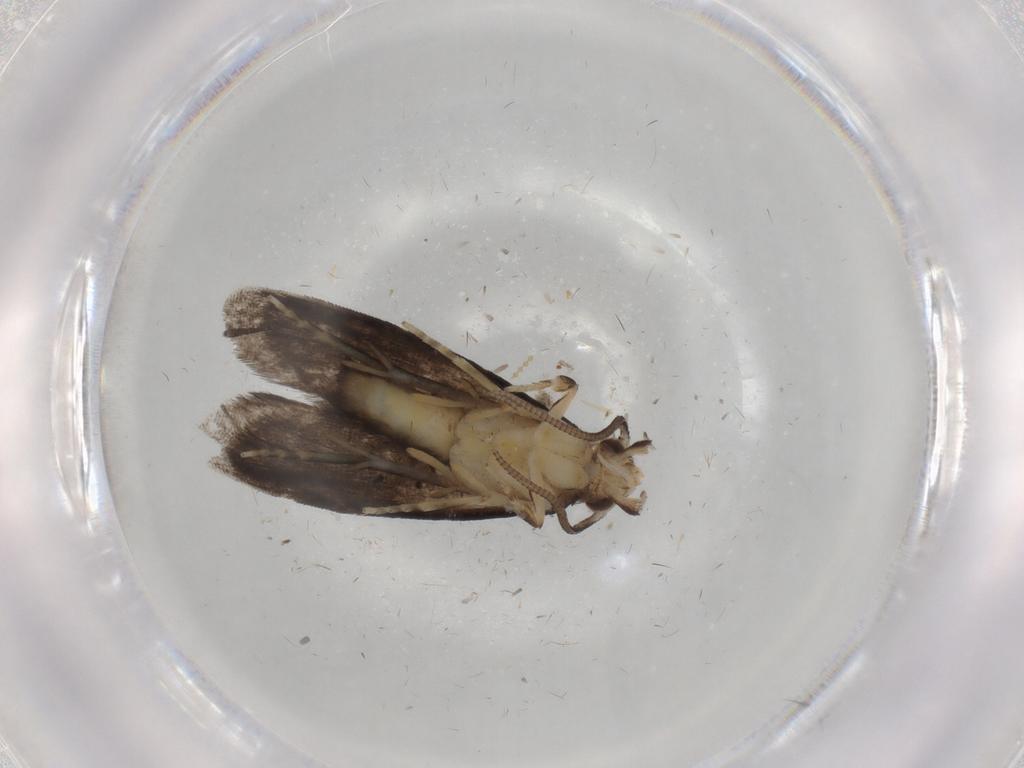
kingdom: Animalia
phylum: Arthropoda
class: Insecta
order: Lepidoptera
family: Dryadaulidae
